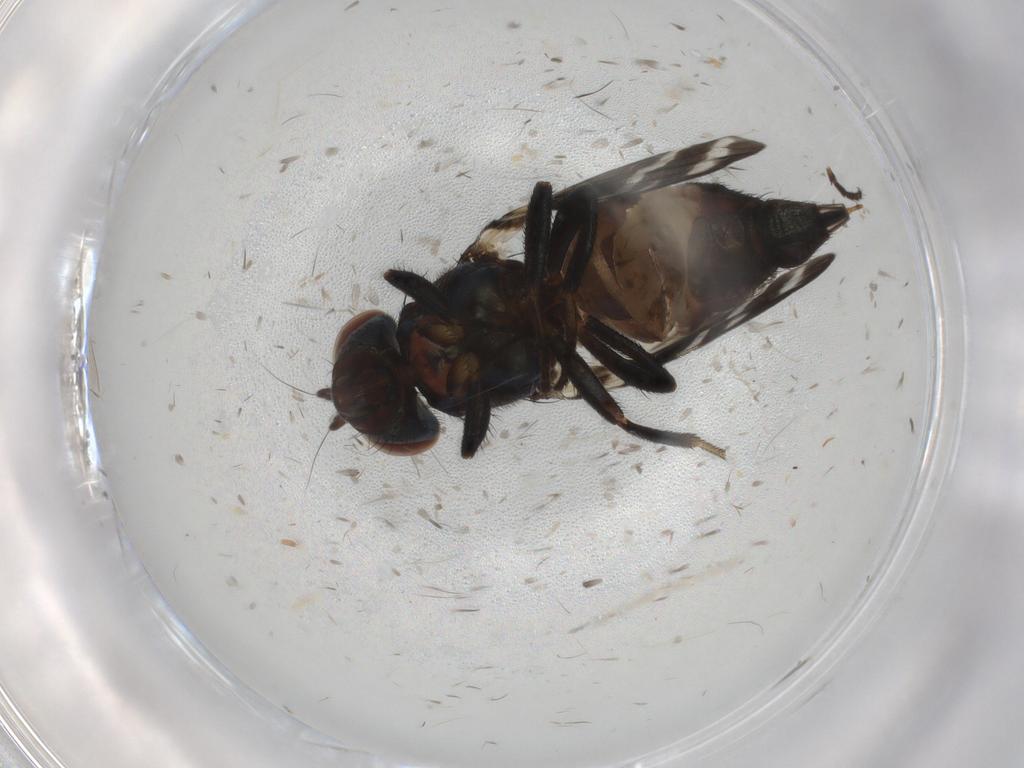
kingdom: Animalia
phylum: Arthropoda
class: Insecta
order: Diptera
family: Ulidiidae
